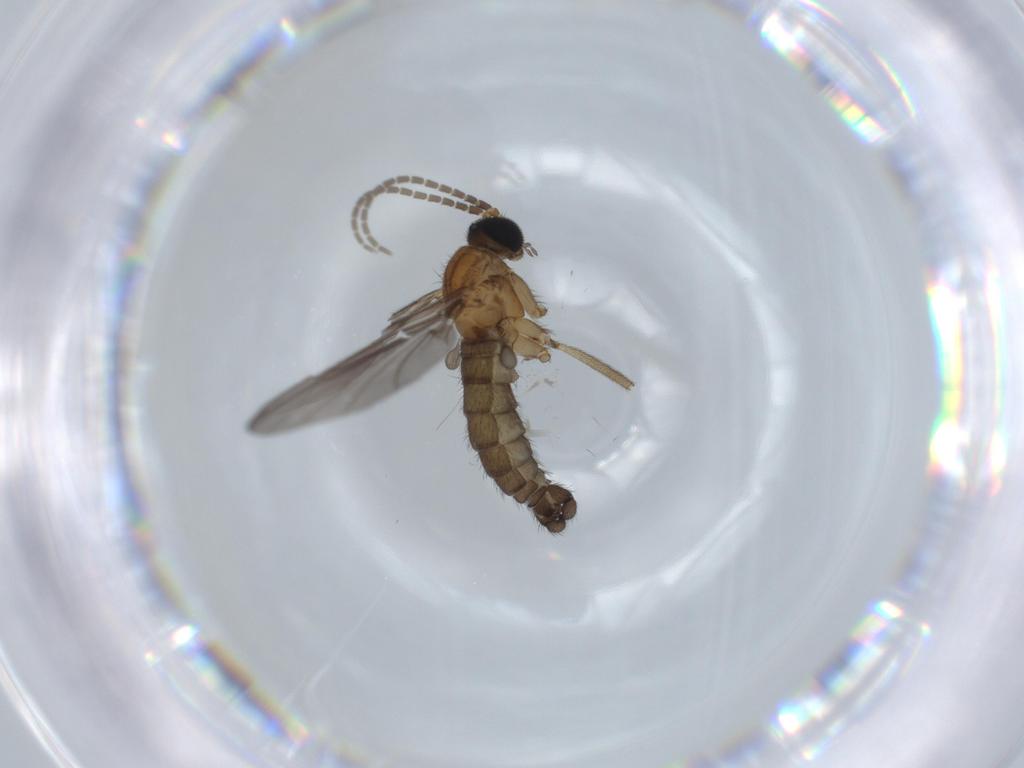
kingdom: Animalia
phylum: Arthropoda
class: Insecta
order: Diptera
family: Sciaridae
